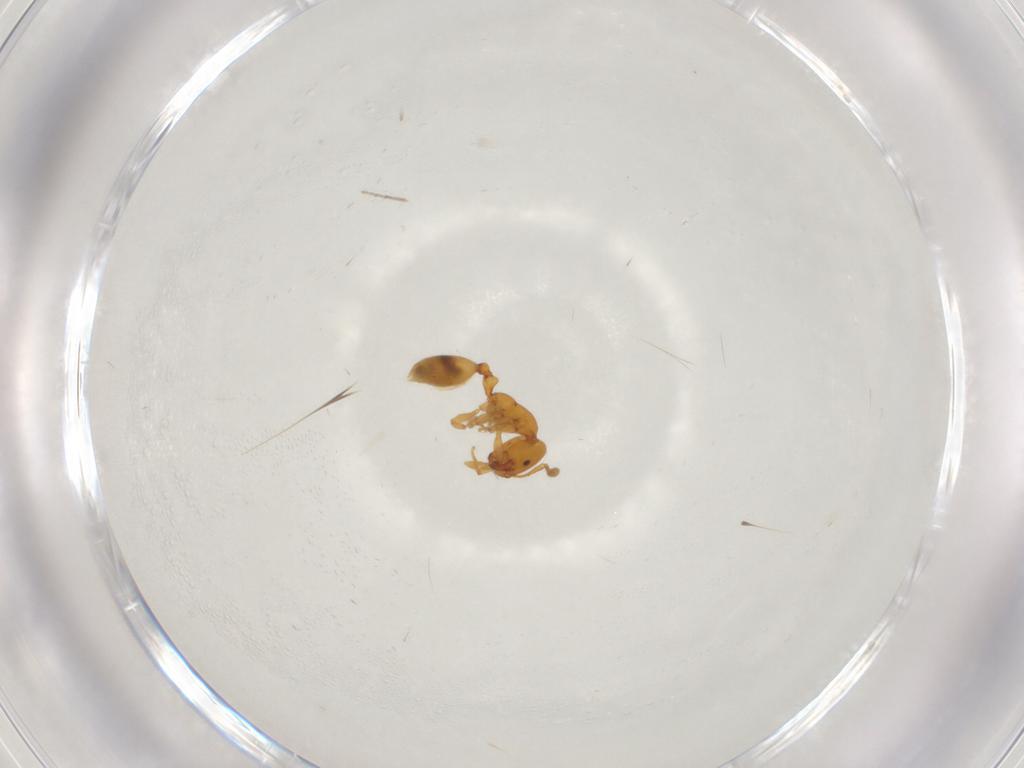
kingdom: Animalia
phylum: Arthropoda
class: Insecta
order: Hymenoptera
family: Formicidae
